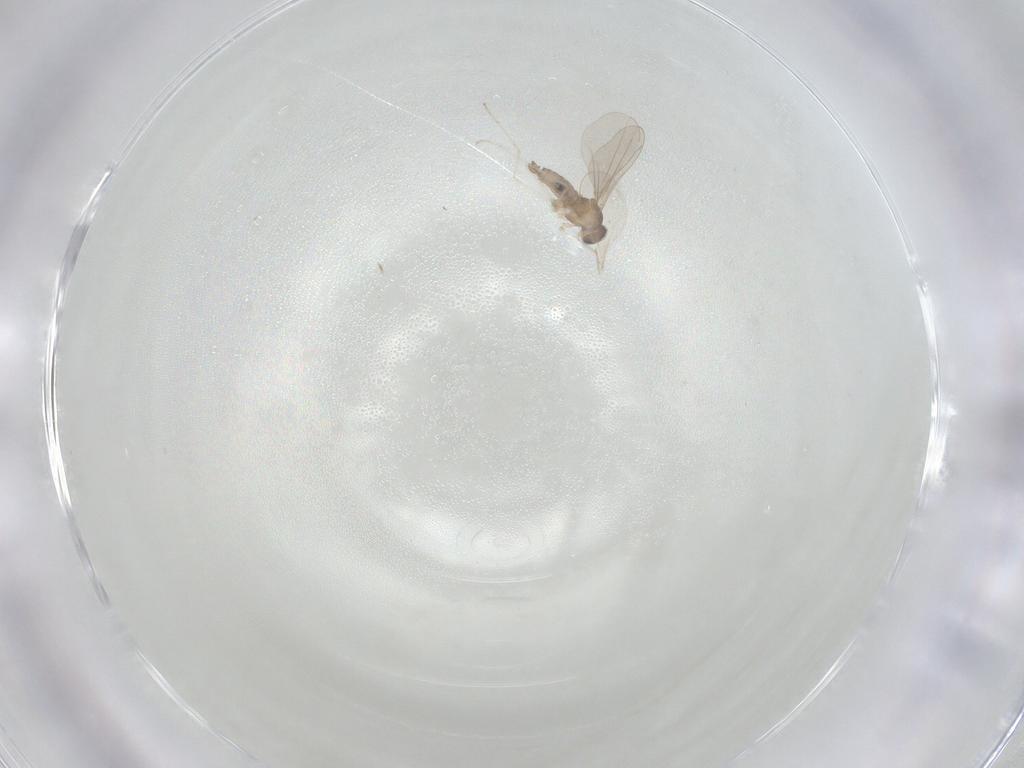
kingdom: Animalia
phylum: Arthropoda
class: Insecta
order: Diptera
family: Cecidomyiidae
